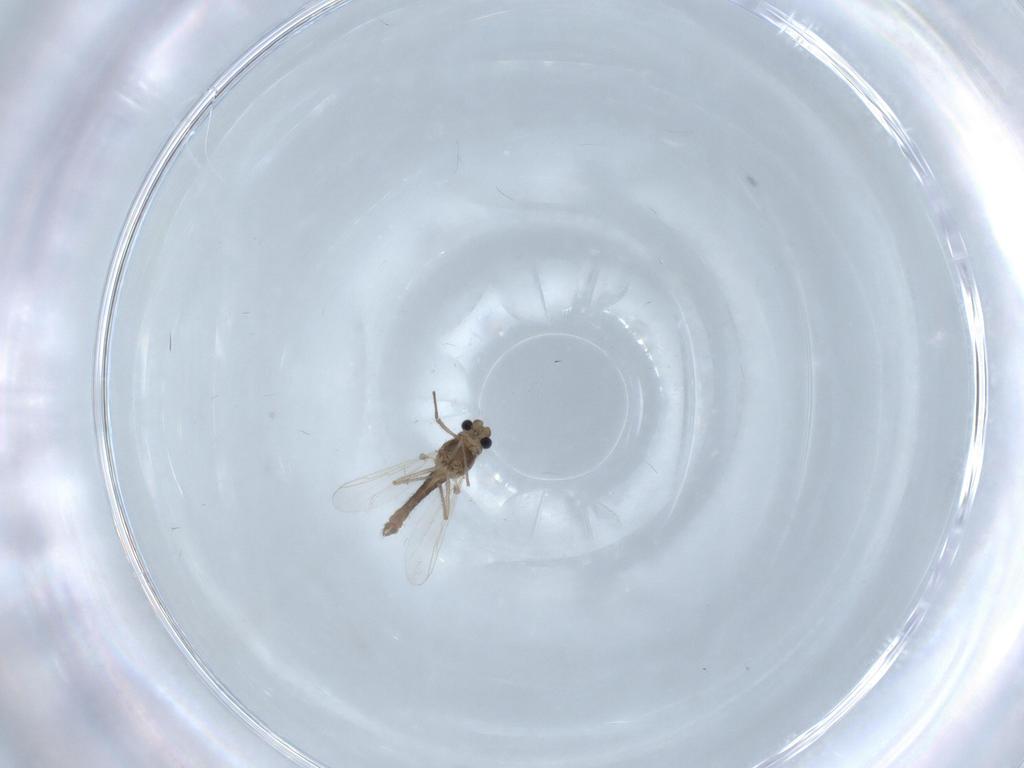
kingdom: Animalia
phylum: Arthropoda
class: Insecta
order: Diptera
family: Chironomidae
